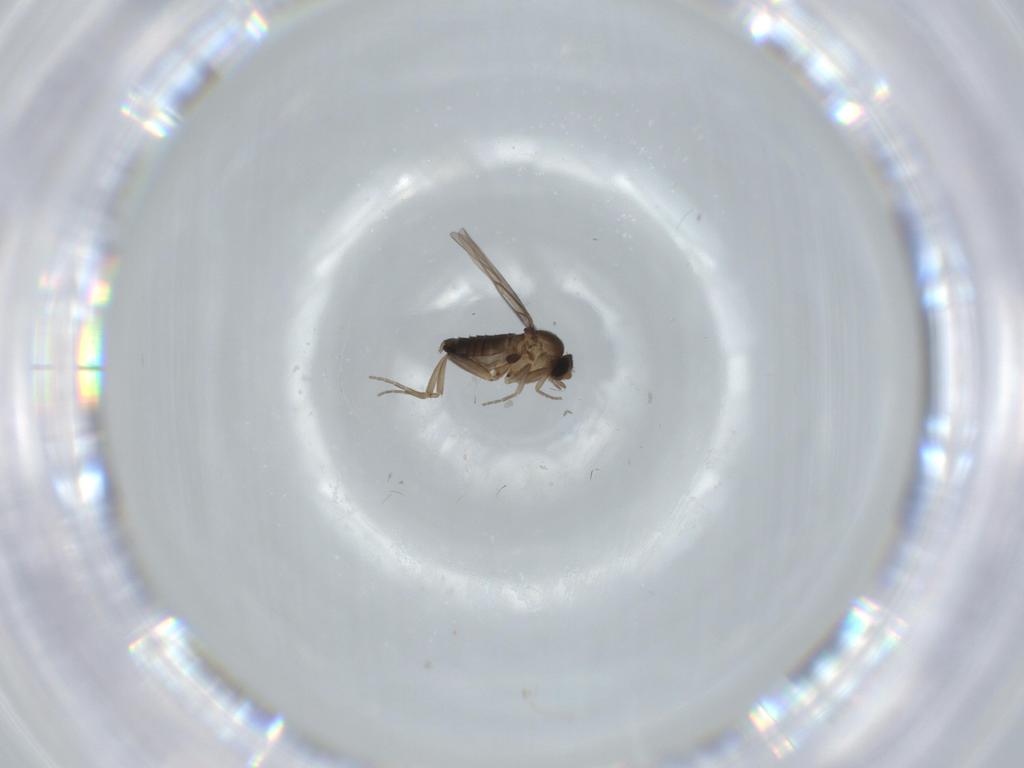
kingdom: Animalia
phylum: Arthropoda
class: Insecta
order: Diptera
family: Phoridae
